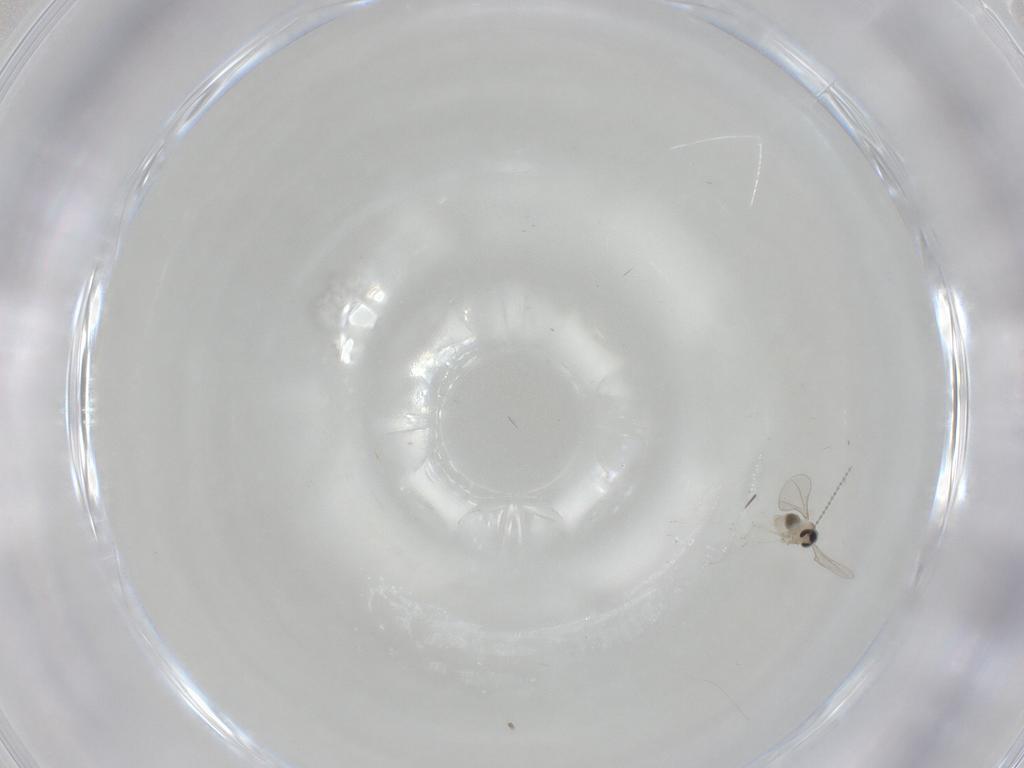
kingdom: Animalia
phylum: Arthropoda
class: Insecta
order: Diptera
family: Cecidomyiidae
